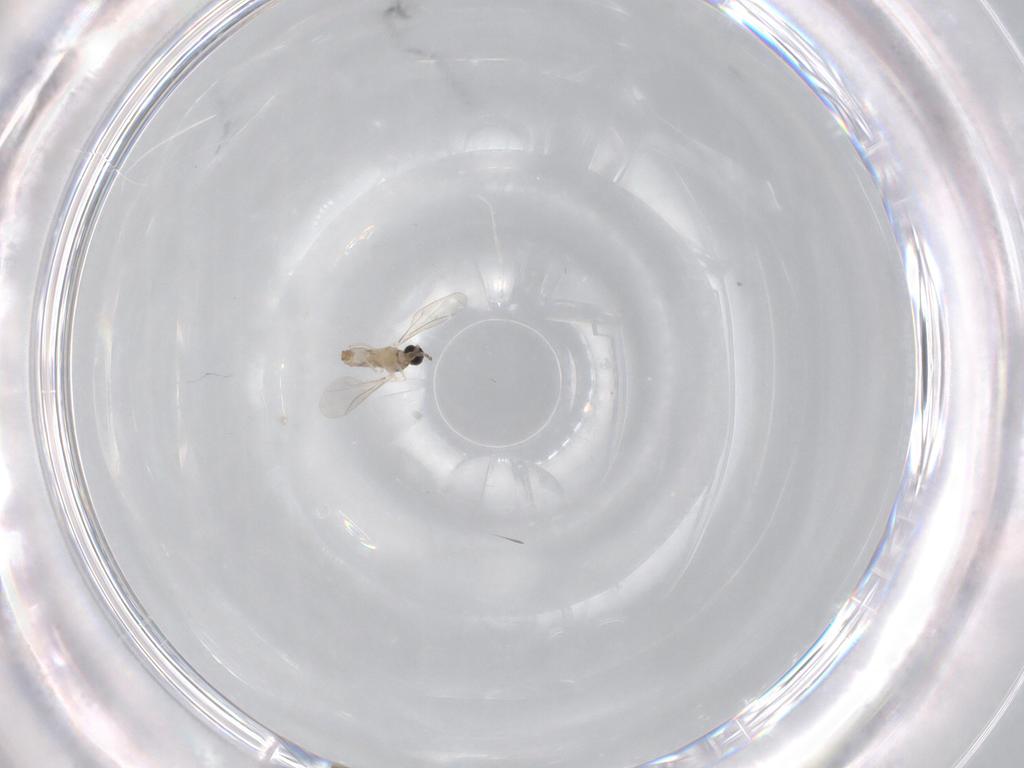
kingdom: Animalia
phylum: Arthropoda
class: Insecta
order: Diptera
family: Cecidomyiidae
